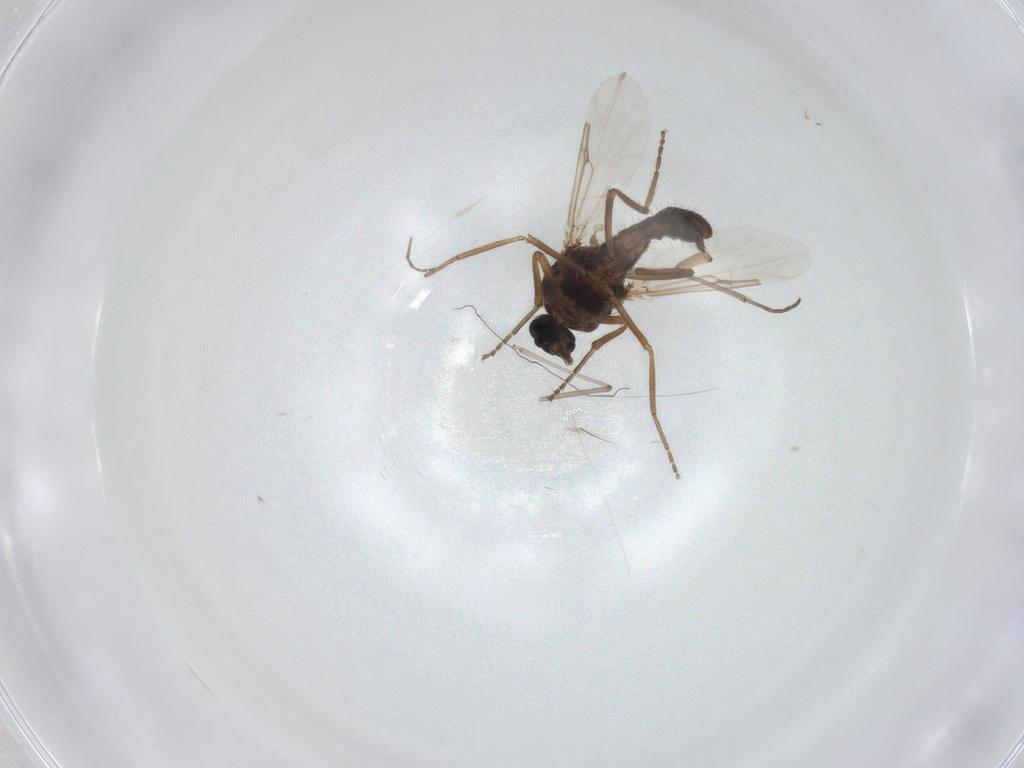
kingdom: Animalia
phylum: Arthropoda
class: Insecta
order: Diptera
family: Ceratopogonidae
